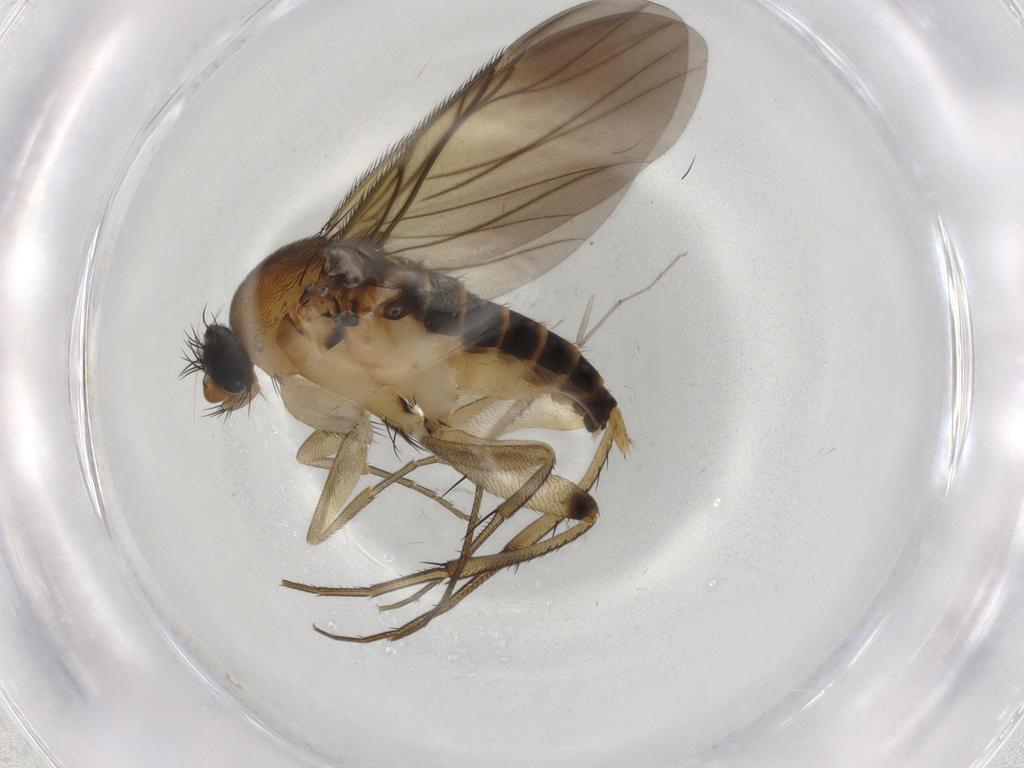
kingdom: Animalia
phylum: Arthropoda
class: Insecta
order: Diptera
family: Phoridae
